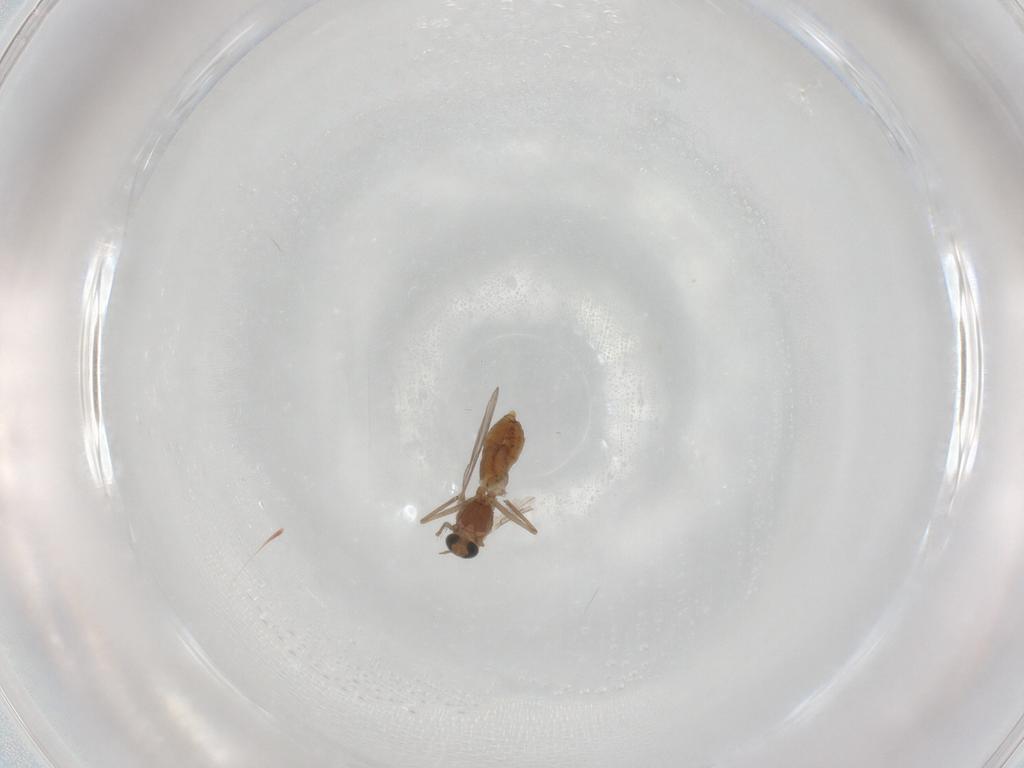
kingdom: Animalia
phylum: Arthropoda
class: Insecta
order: Diptera
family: Chironomidae
